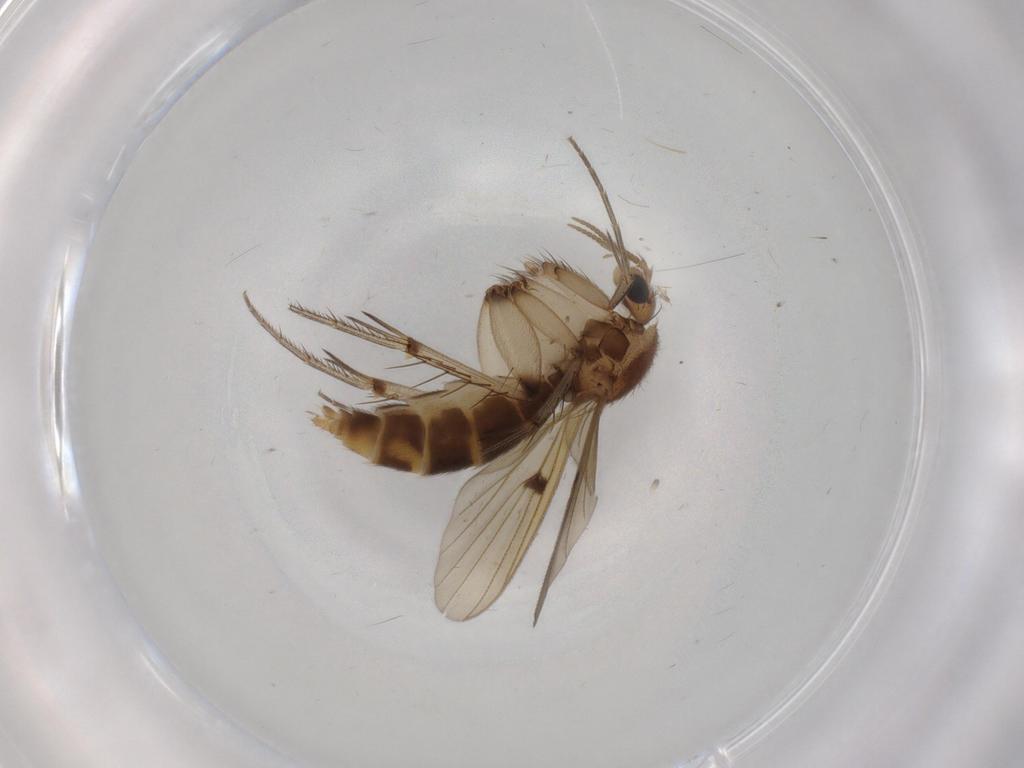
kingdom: Animalia
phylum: Arthropoda
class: Insecta
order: Diptera
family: Mycetophilidae
